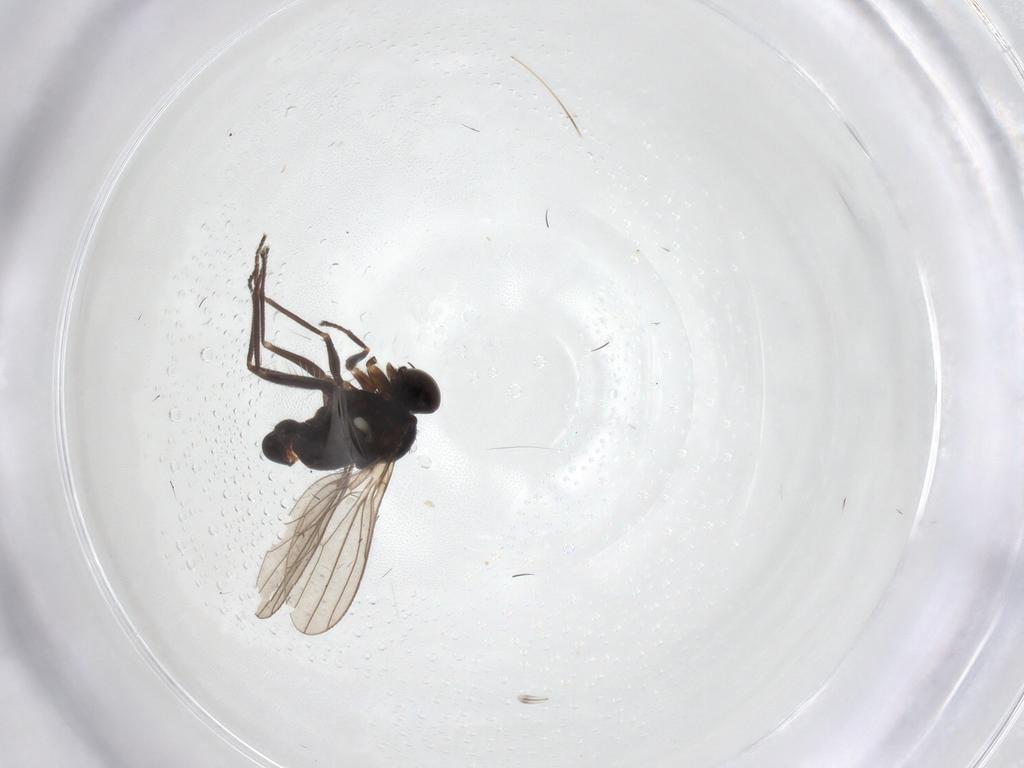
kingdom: Animalia
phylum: Arthropoda
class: Insecta
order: Diptera
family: Dolichopodidae
